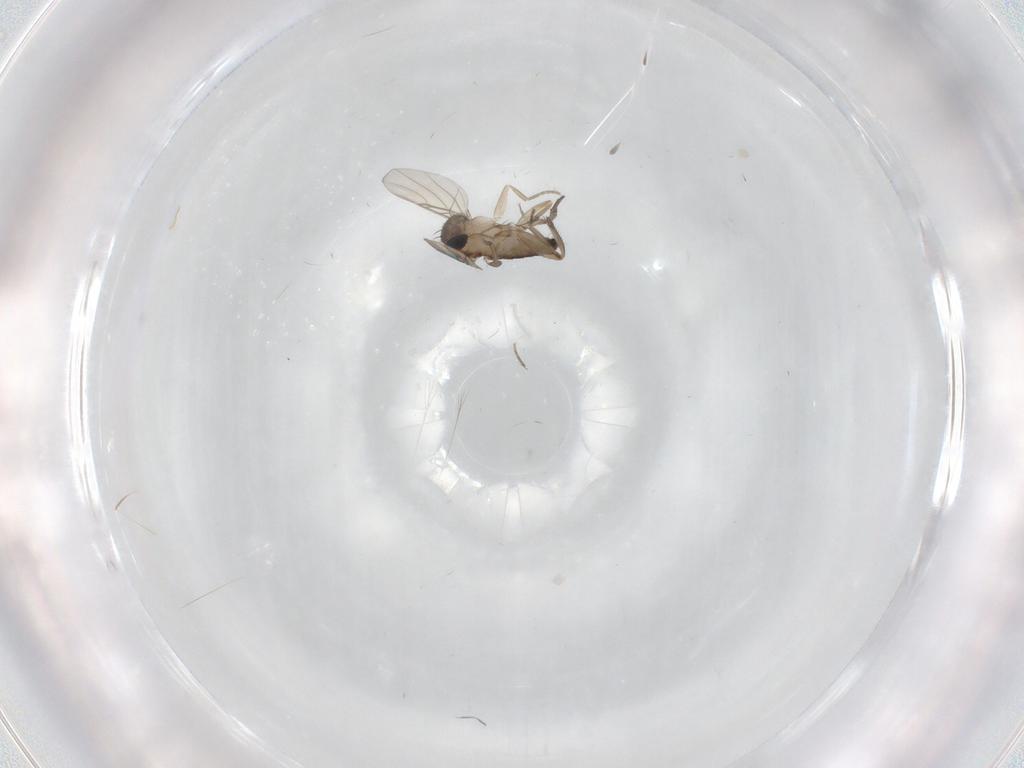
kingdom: Animalia
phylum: Arthropoda
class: Insecta
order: Diptera
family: Phoridae
